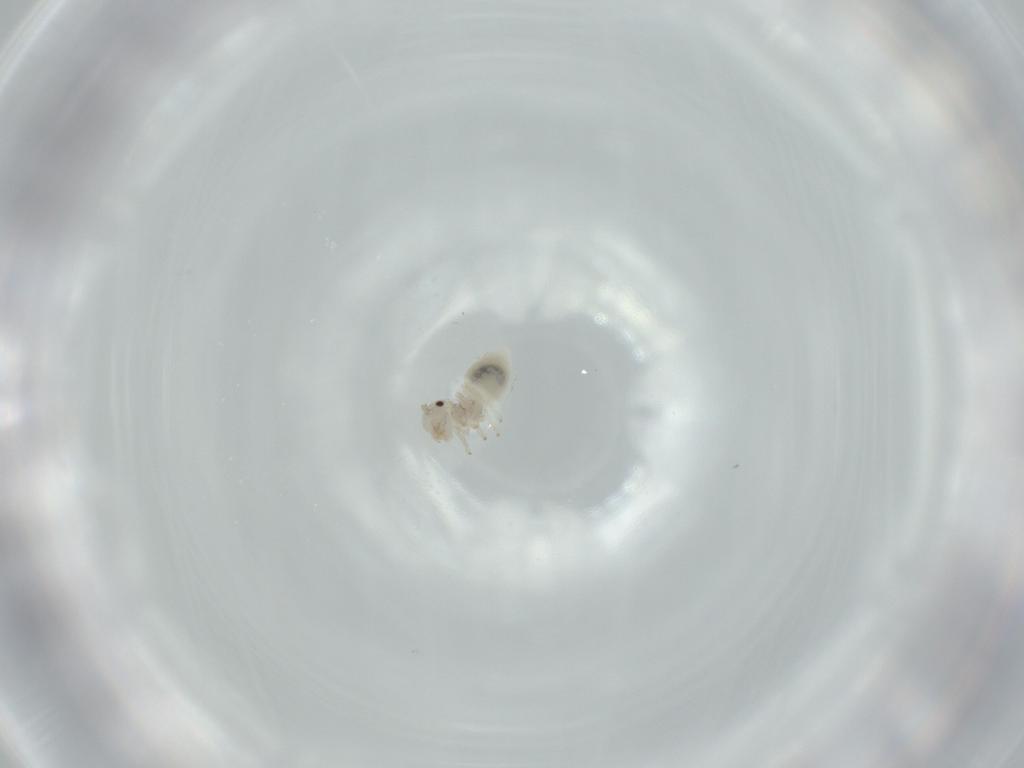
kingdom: Animalia
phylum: Arthropoda
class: Insecta
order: Psocodea
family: Amphipsocidae
